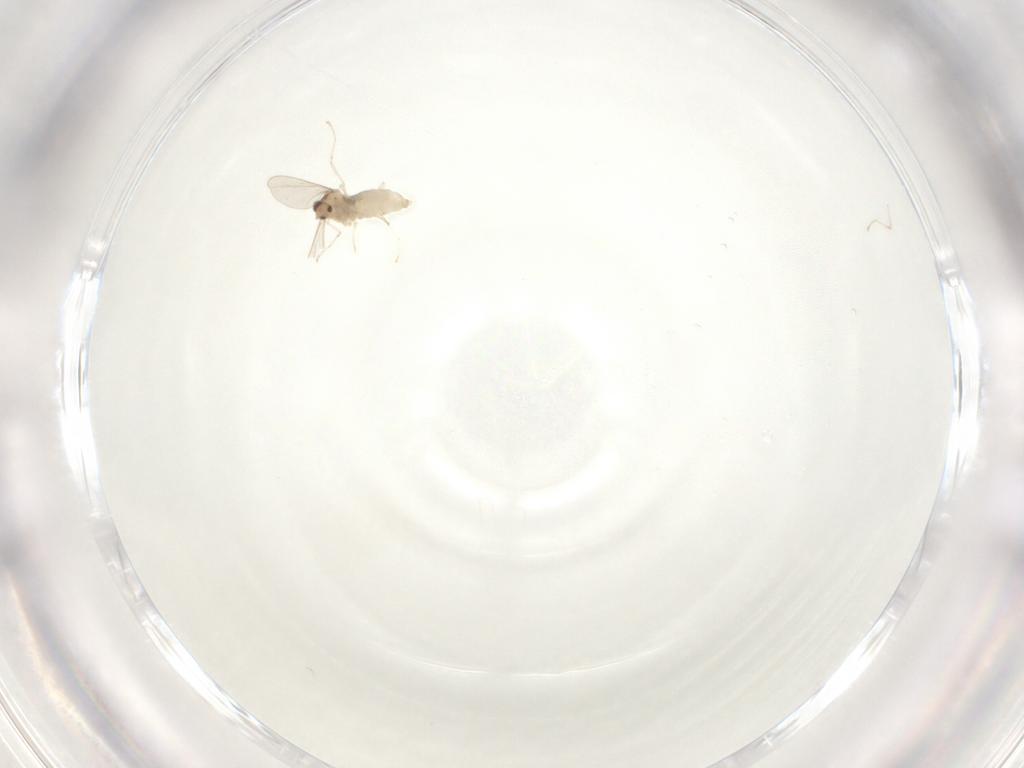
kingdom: Animalia
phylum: Arthropoda
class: Insecta
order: Diptera
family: Cecidomyiidae
